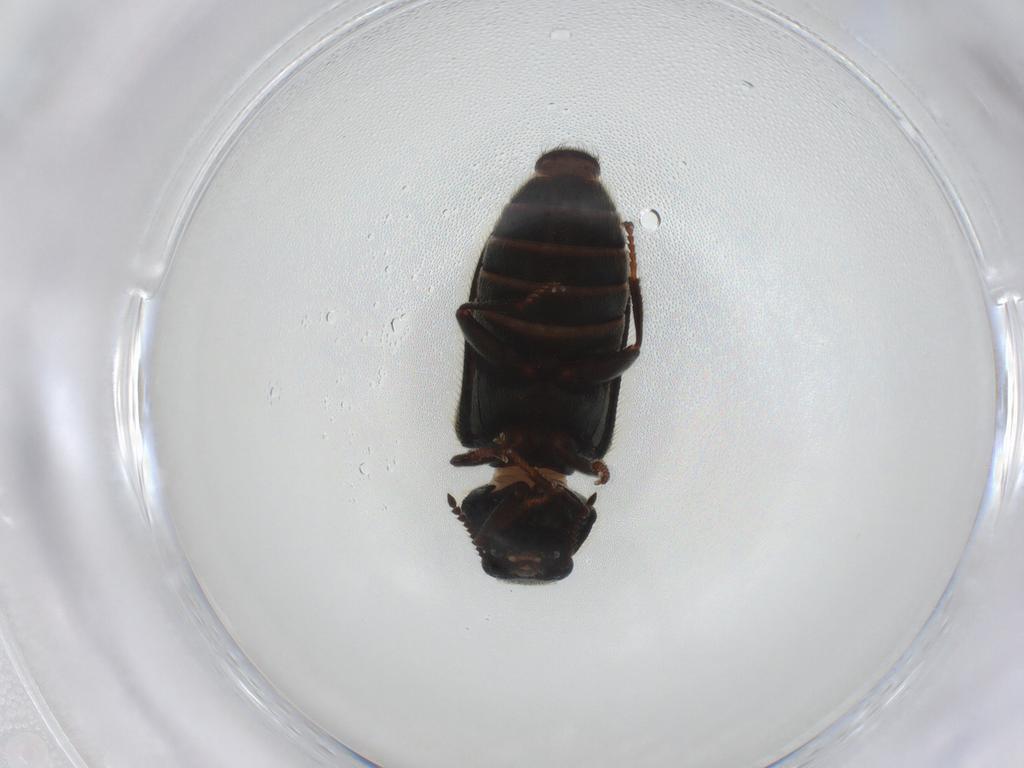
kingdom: Animalia
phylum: Arthropoda
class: Insecta
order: Coleoptera
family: Dasytidae
